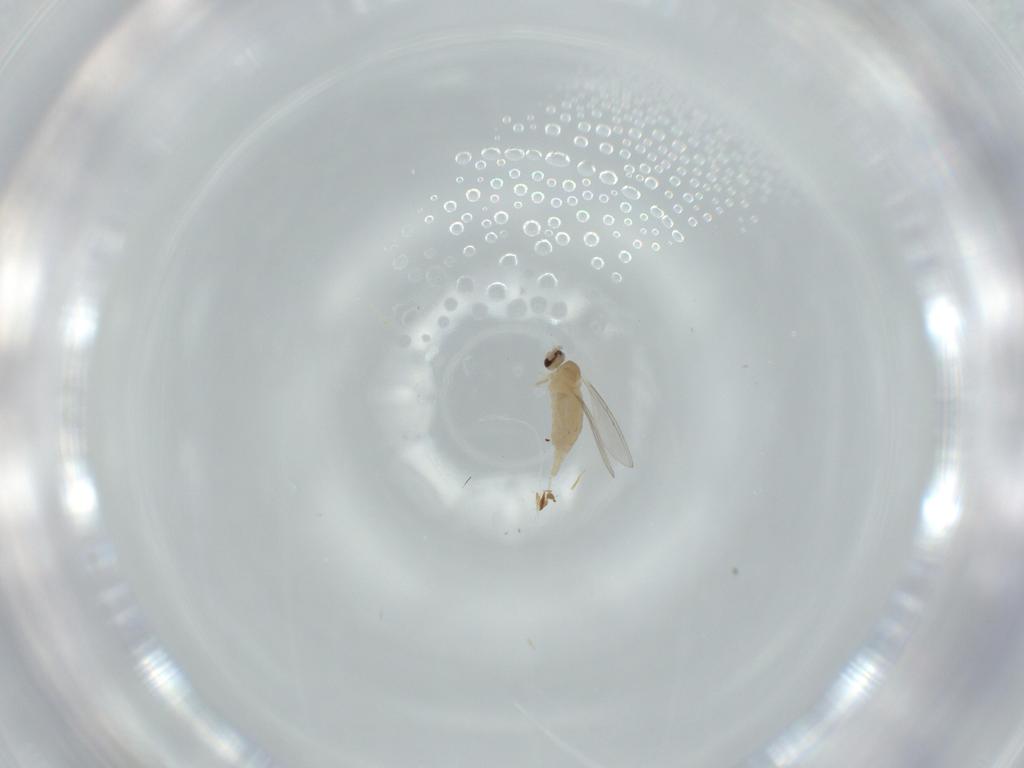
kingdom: Animalia
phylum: Arthropoda
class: Insecta
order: Diptera
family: Cecidomyiidae
